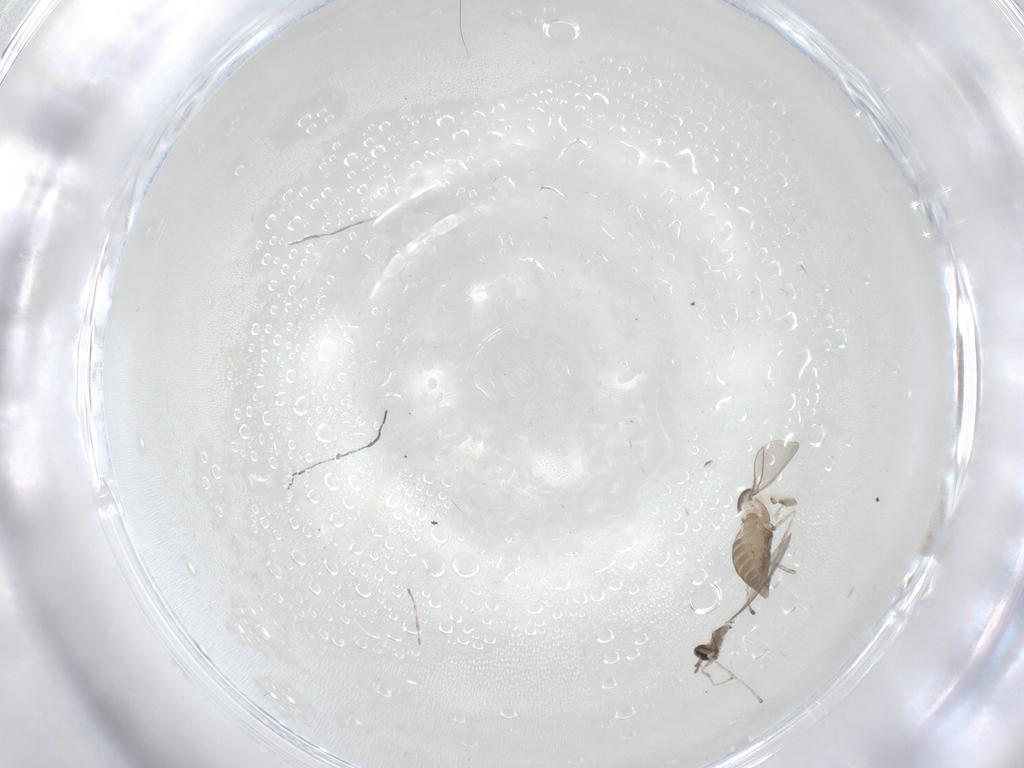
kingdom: Animalia
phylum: Arthropoda
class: Insecta
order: Diptera
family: Cecidomyiidae
